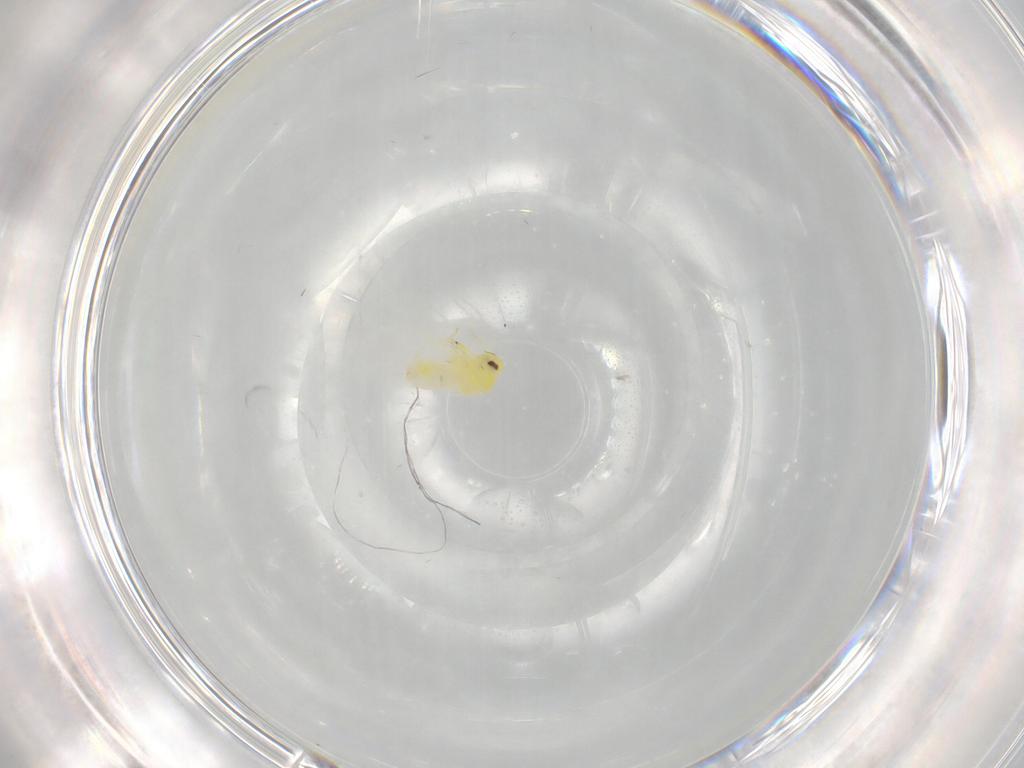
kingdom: Animalia
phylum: Arthropoda
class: Insecta
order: Hemiptera
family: Aleyrodidae
